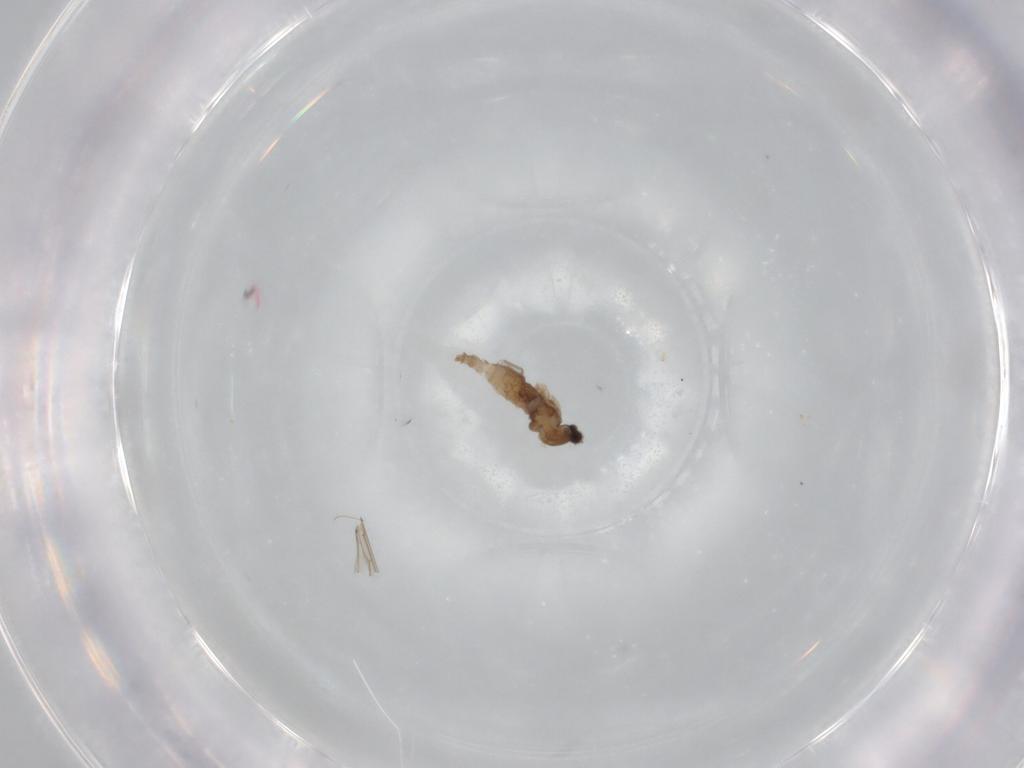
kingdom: Animalia
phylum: Arthropoda
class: Insecta
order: Diptera
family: Cecidomyiidae
